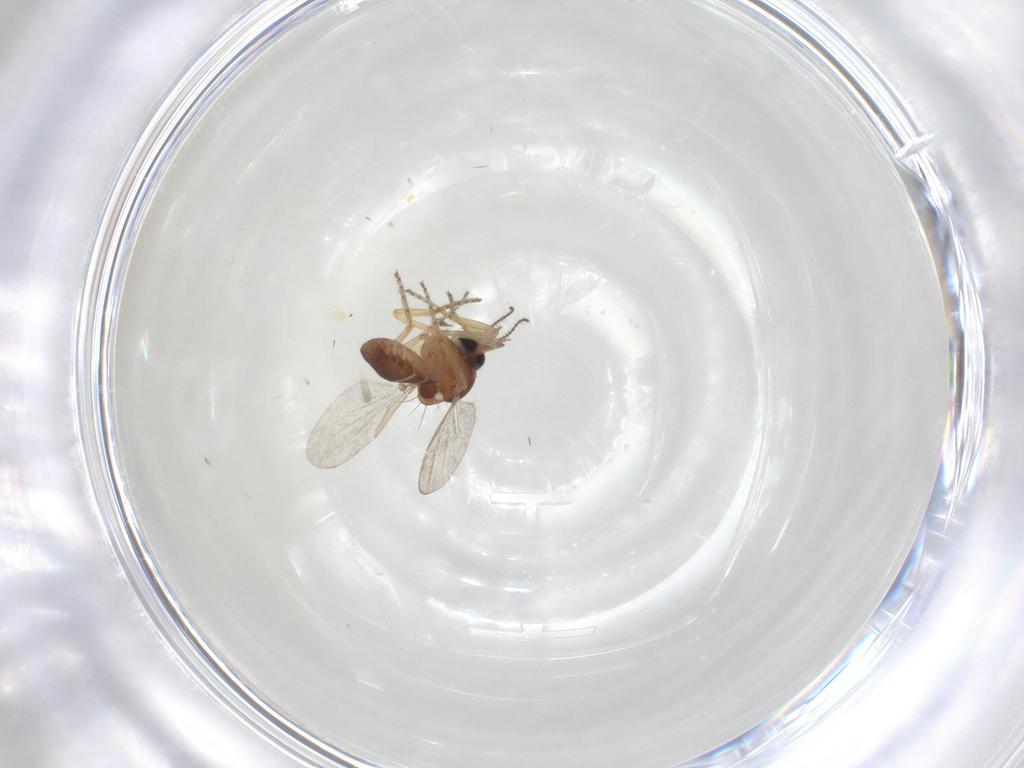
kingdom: Animalia
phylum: Arthropoda
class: Insecta
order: Diptera
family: Ceratopogonidae
